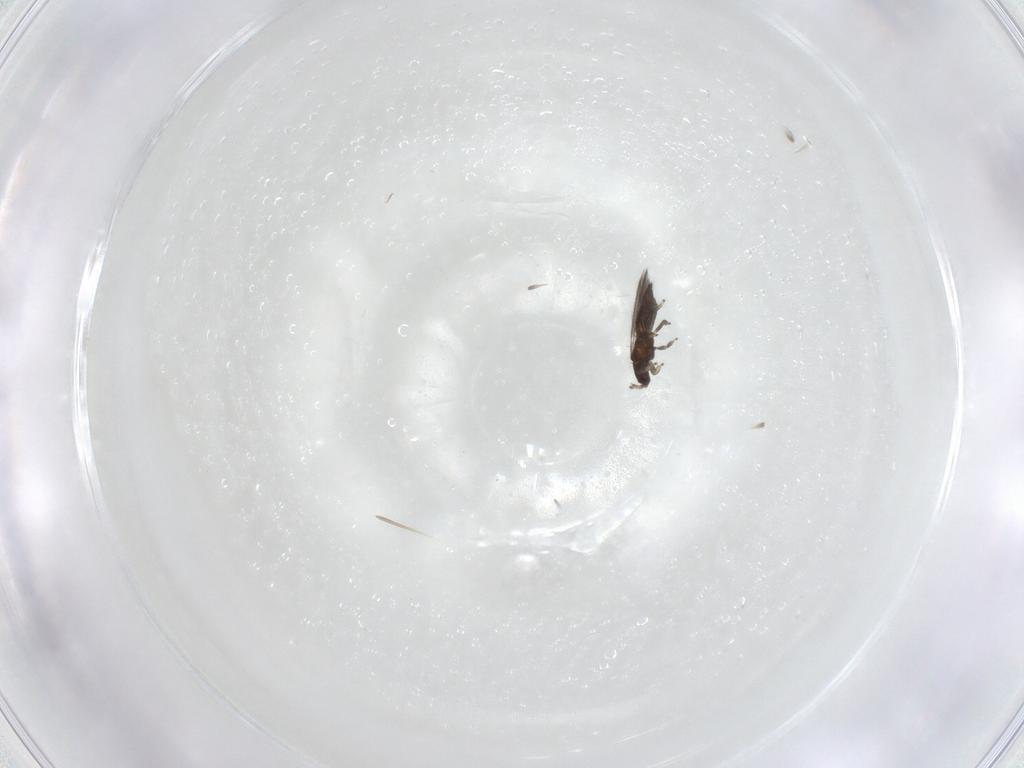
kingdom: Animalia
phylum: Arthropoda
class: Insecta
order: Thysanoptera
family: Thripidae
